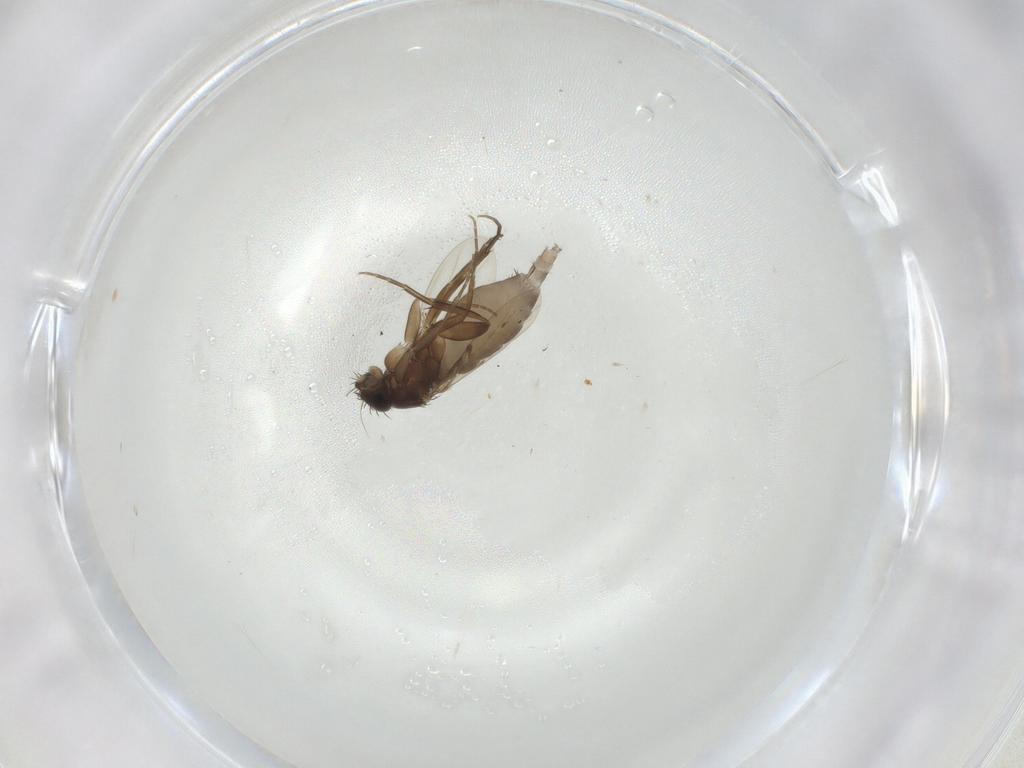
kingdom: Animalia
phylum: Arthropoda
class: Insecta
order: Diptera
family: Phoridae
